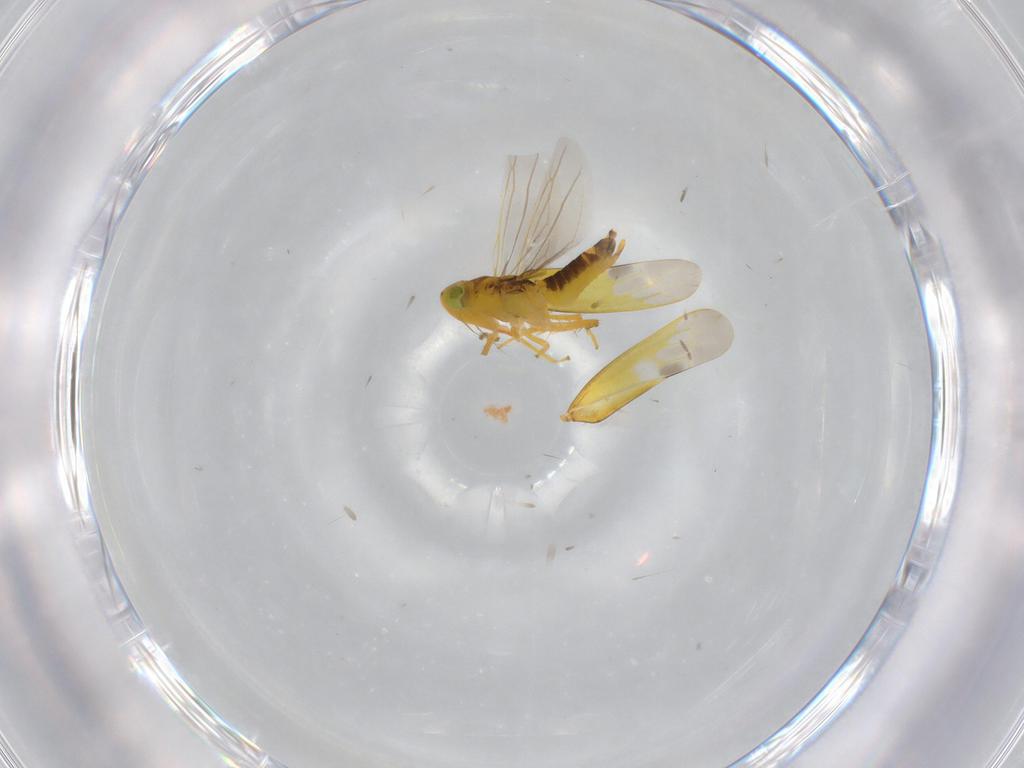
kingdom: Animalia
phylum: Arthropoda
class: Insecta
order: Hemiptera
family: Cicadellidae
